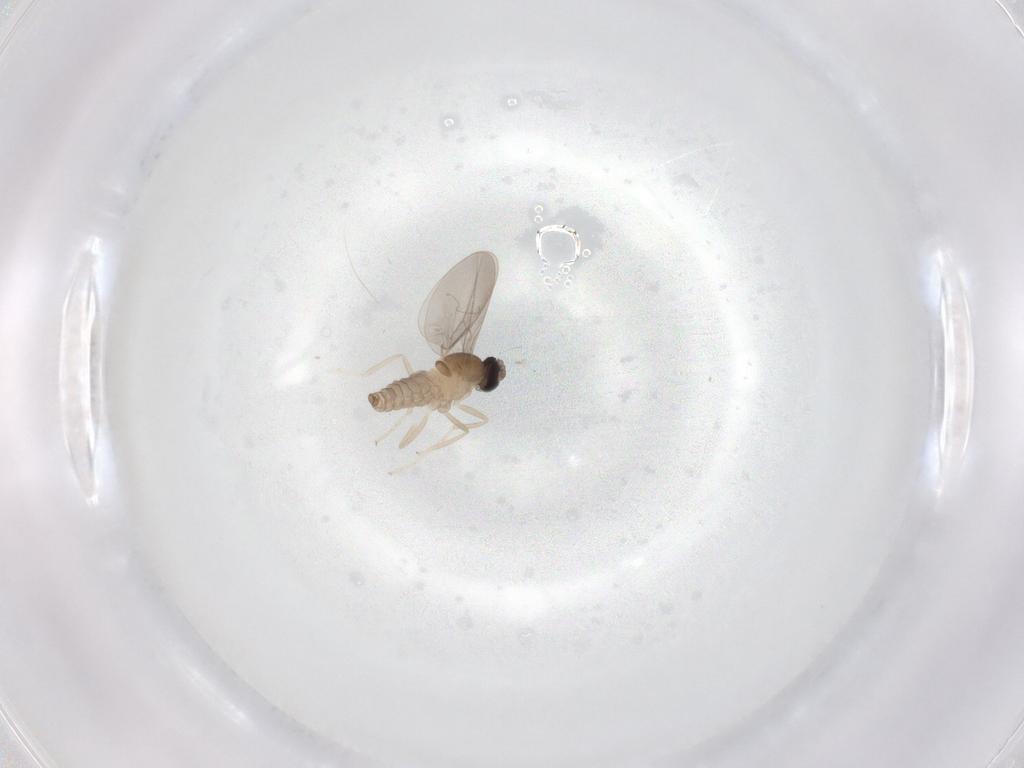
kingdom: Animalia
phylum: Arthropoda
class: Insecta
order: Diptera
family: Cecidomyiidae
